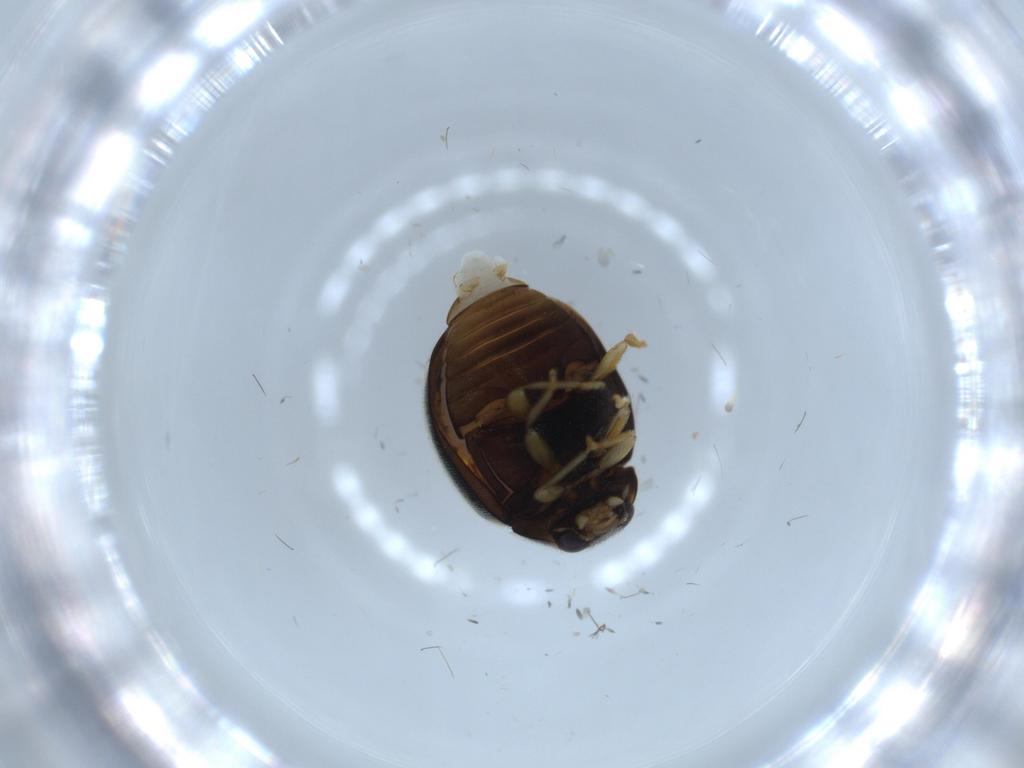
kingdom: Animalia
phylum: Arthropoda
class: Insecta
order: Coleoptera
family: Coccinellidae
